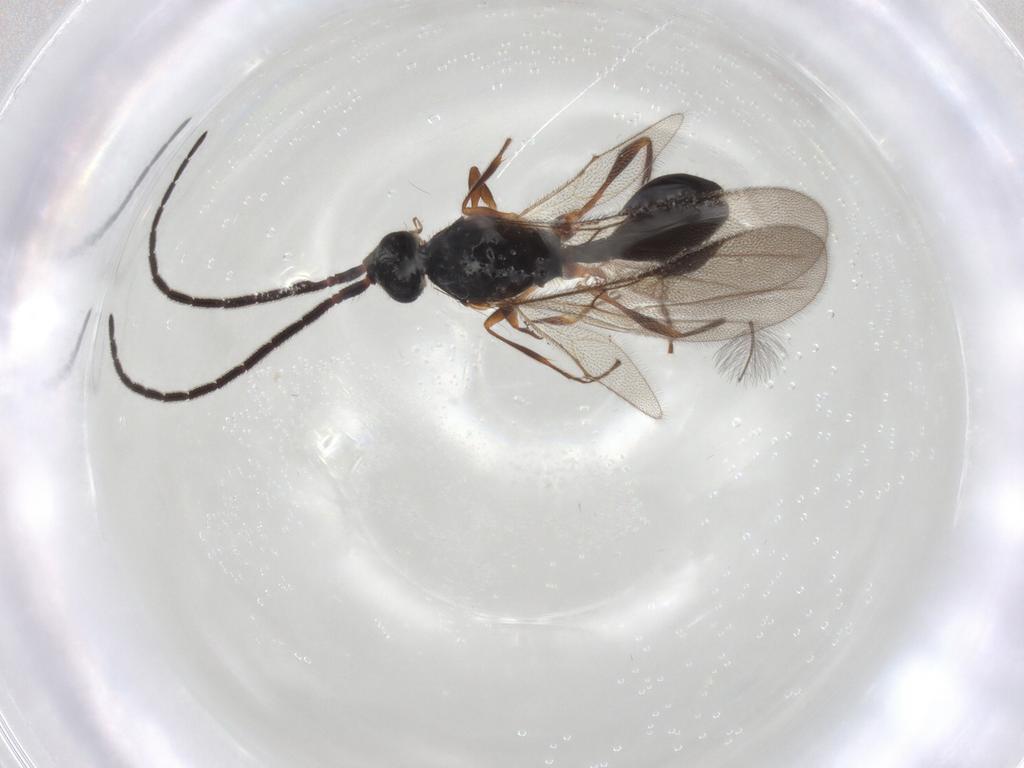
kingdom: Animalia
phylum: Arthropoda
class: Insecta
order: Hymenoptera
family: Diapriidae
